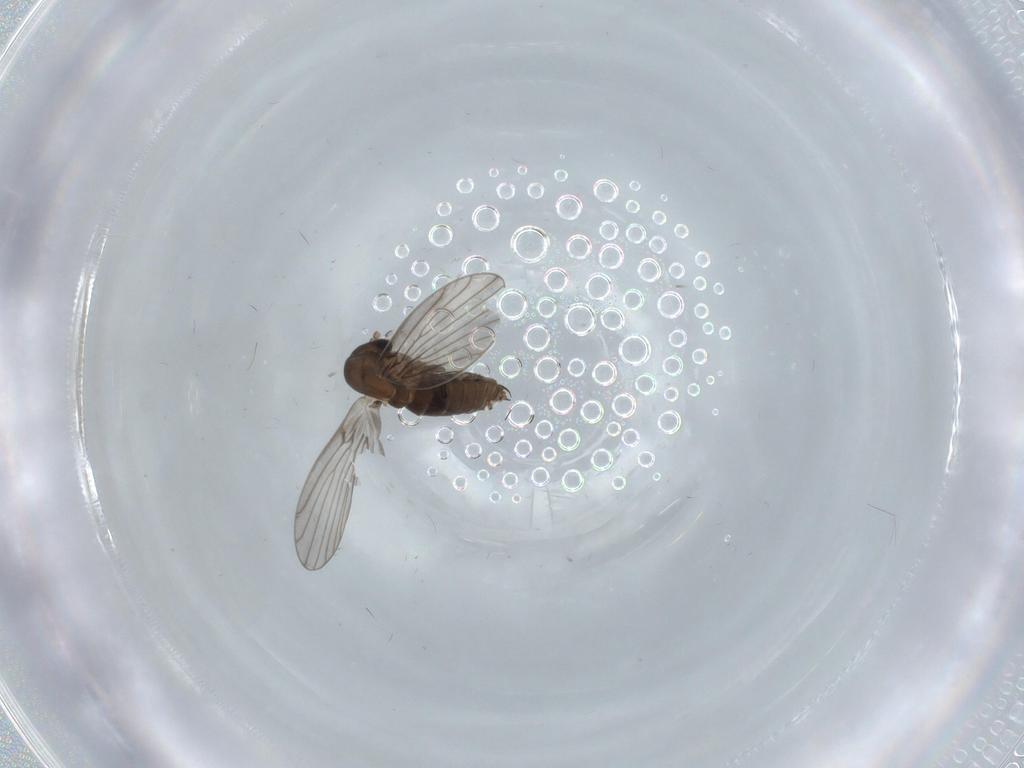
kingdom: Animalia
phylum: Arthropoda
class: Insecta
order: Diptera
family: Psychodidae
